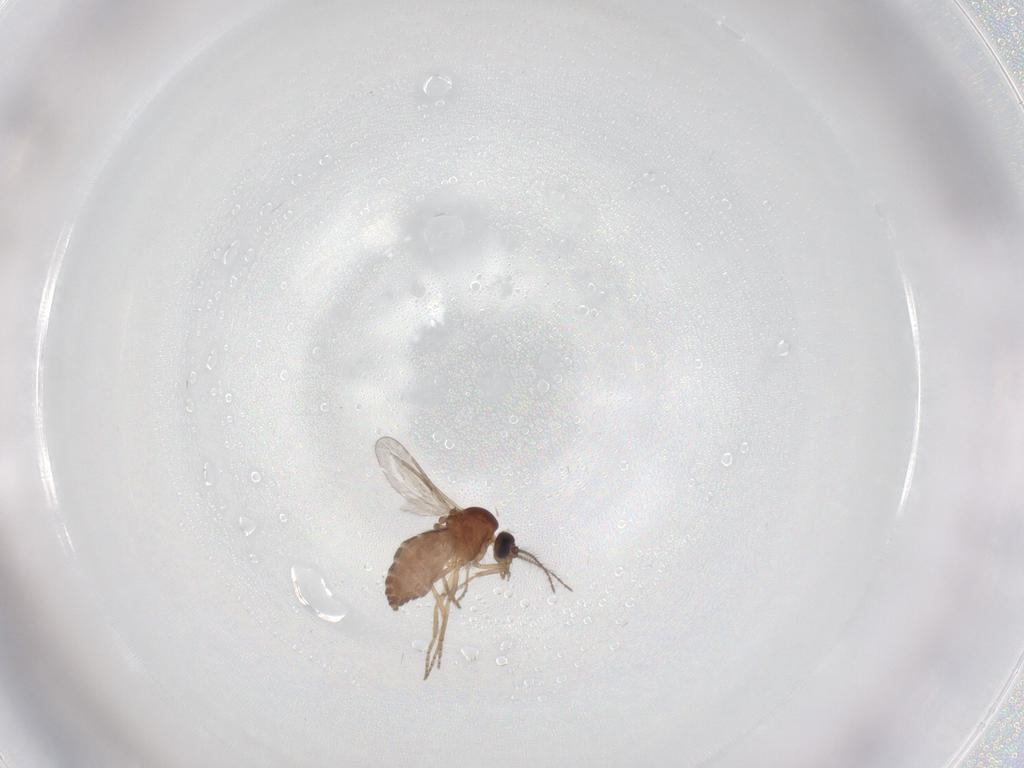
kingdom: Animalia
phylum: Arthropoda
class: Insecta
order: Diptera
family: Ceratopogonidae
